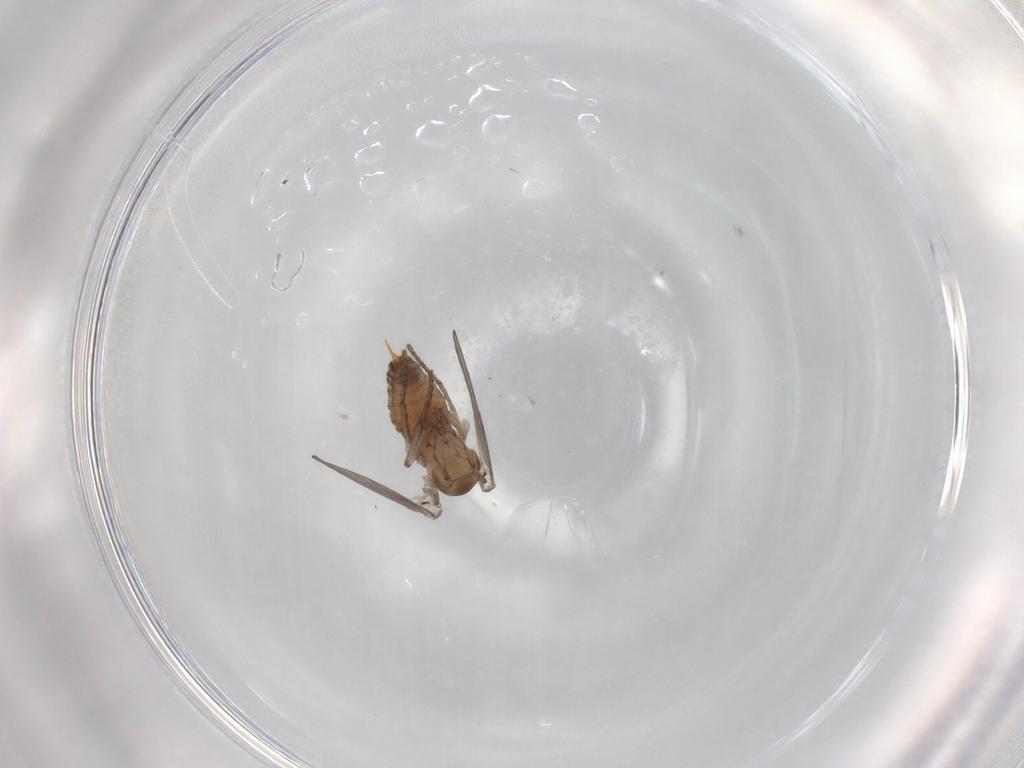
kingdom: Animalia
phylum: Arthropoda
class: Insecta
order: Diptera
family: Psychodidae
